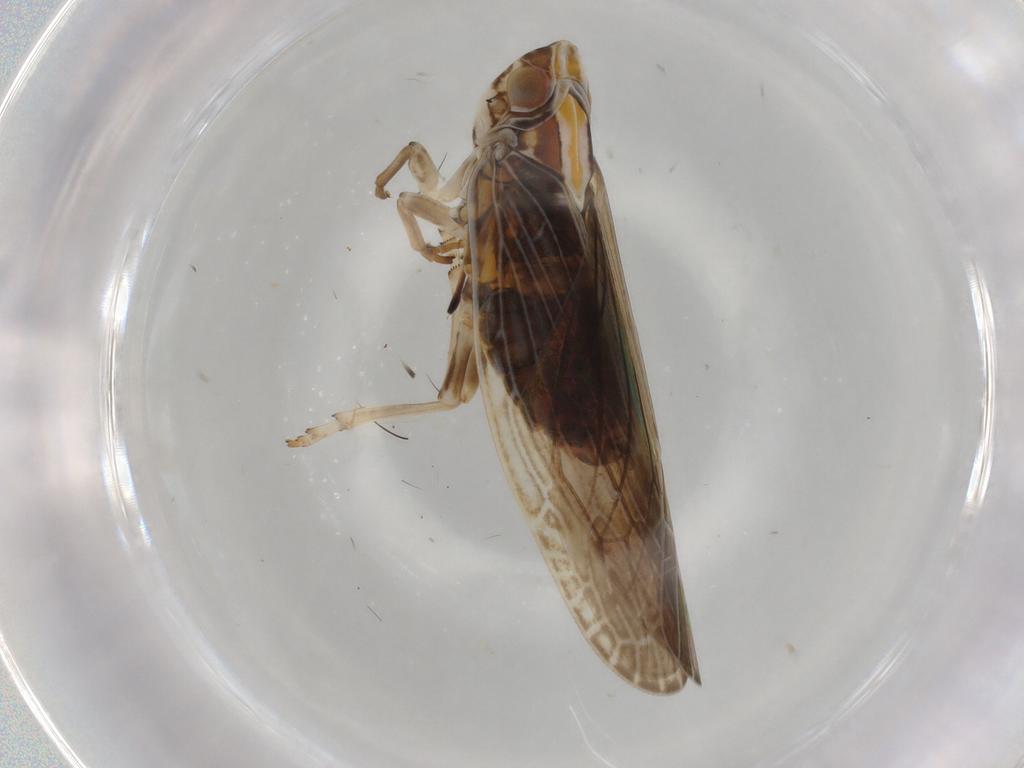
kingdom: Animalia
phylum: Arthropoda
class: Insecta
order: Hemiptera
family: Achilidae
